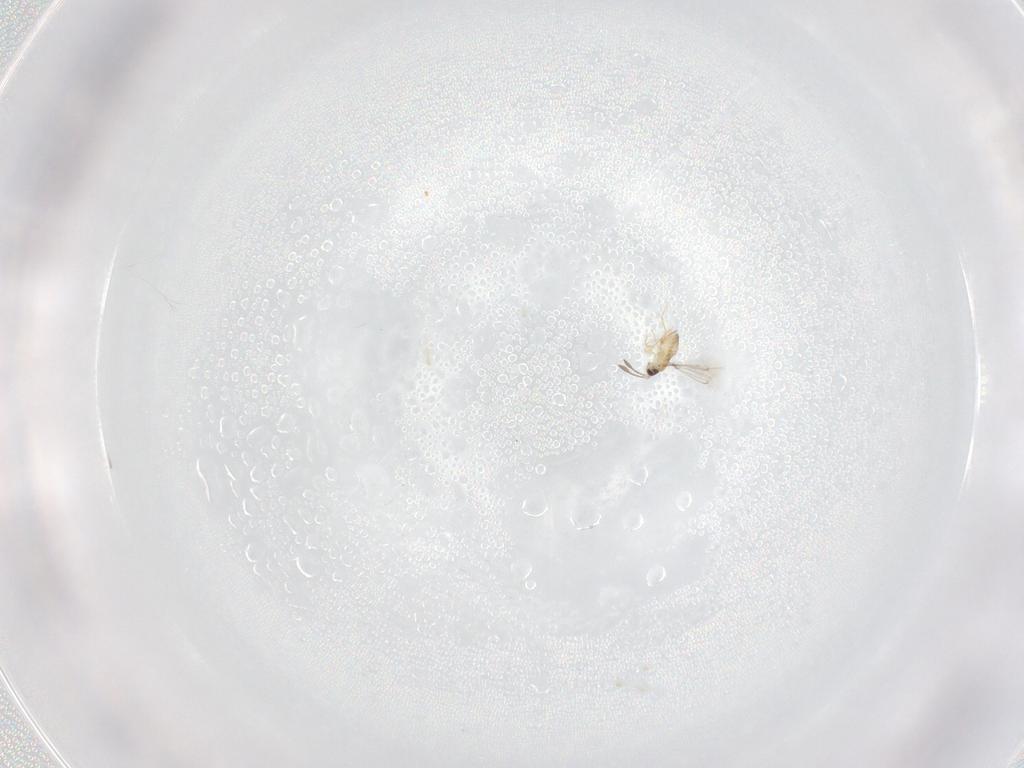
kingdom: Animalia
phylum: Arthropoda
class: Insecta
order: Hymenoptera
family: Mymaridae
